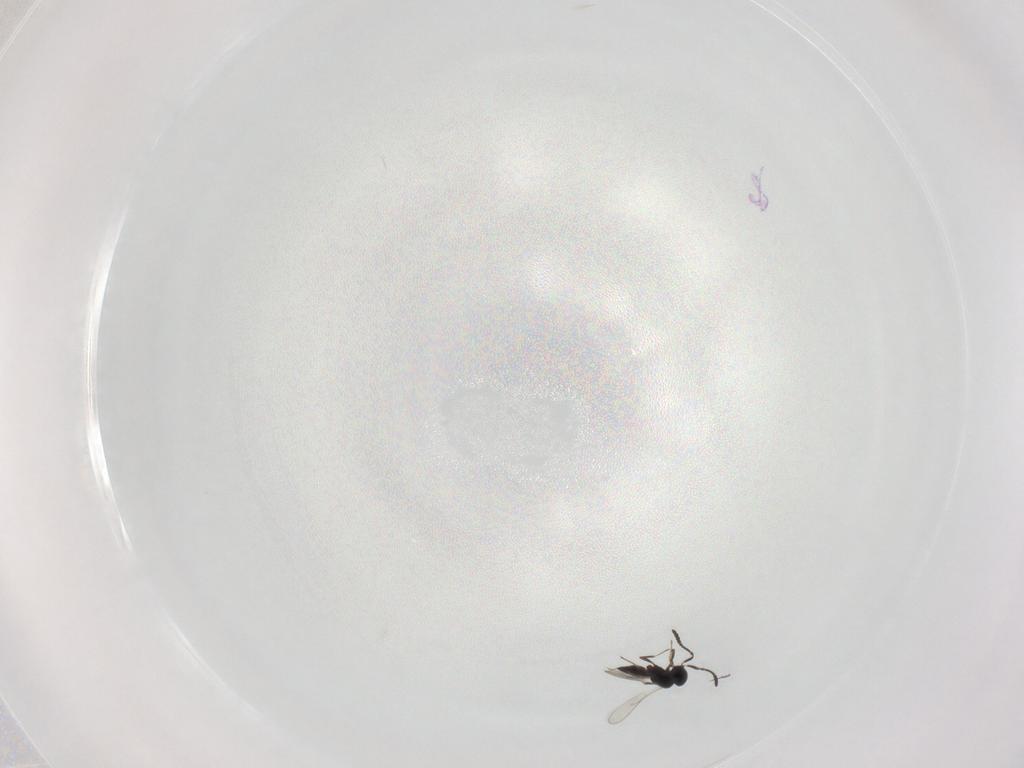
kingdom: Animalia
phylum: Arthropoda
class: Insecta
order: Hymenoptera
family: Scelionidae
